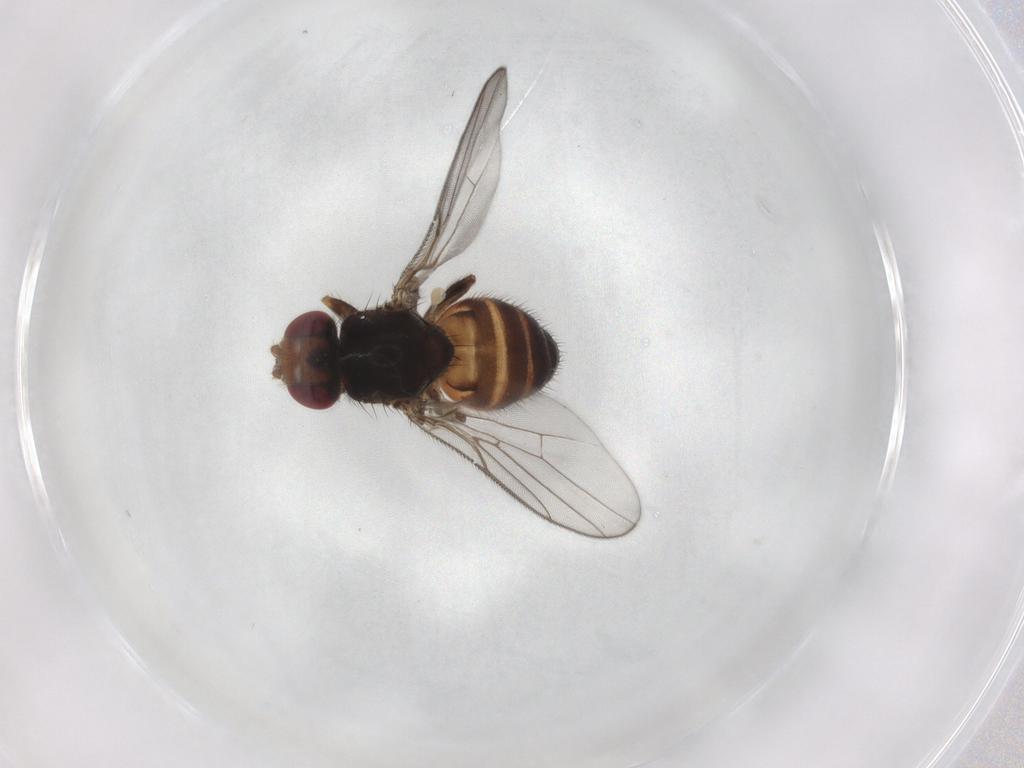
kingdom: Animalia
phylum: Arthropoda
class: Insecta
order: Diptera
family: Chloropidae
